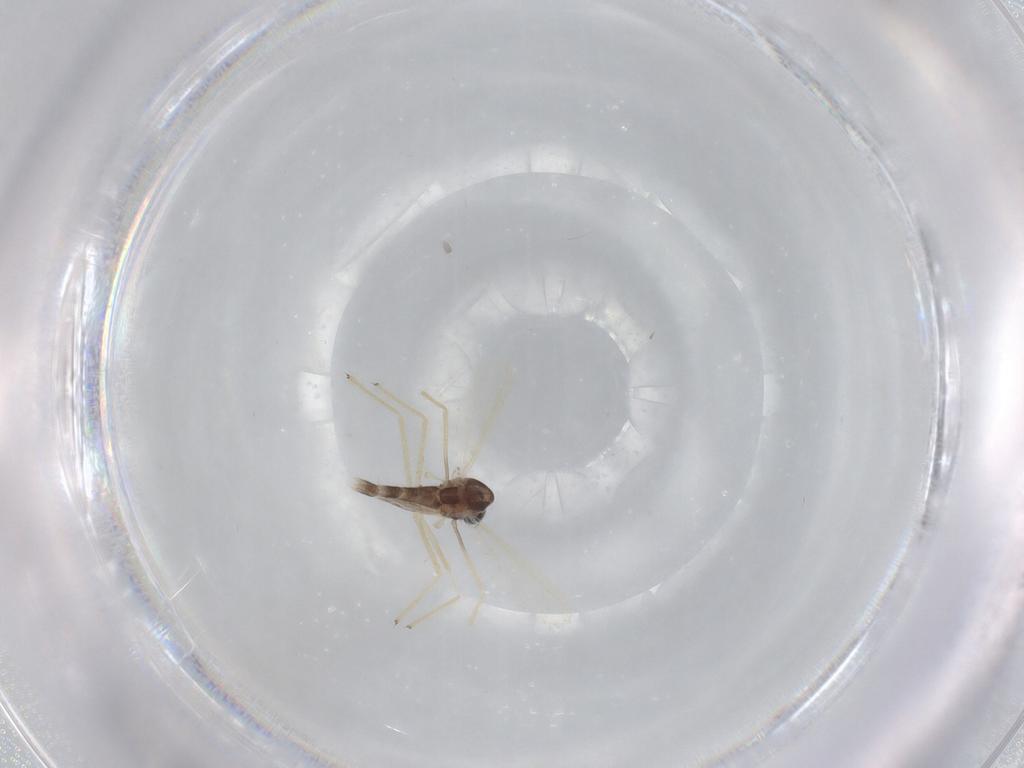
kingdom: Animalia
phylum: Arthropoda
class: Insecta
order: Diptera
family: Chironomidae
